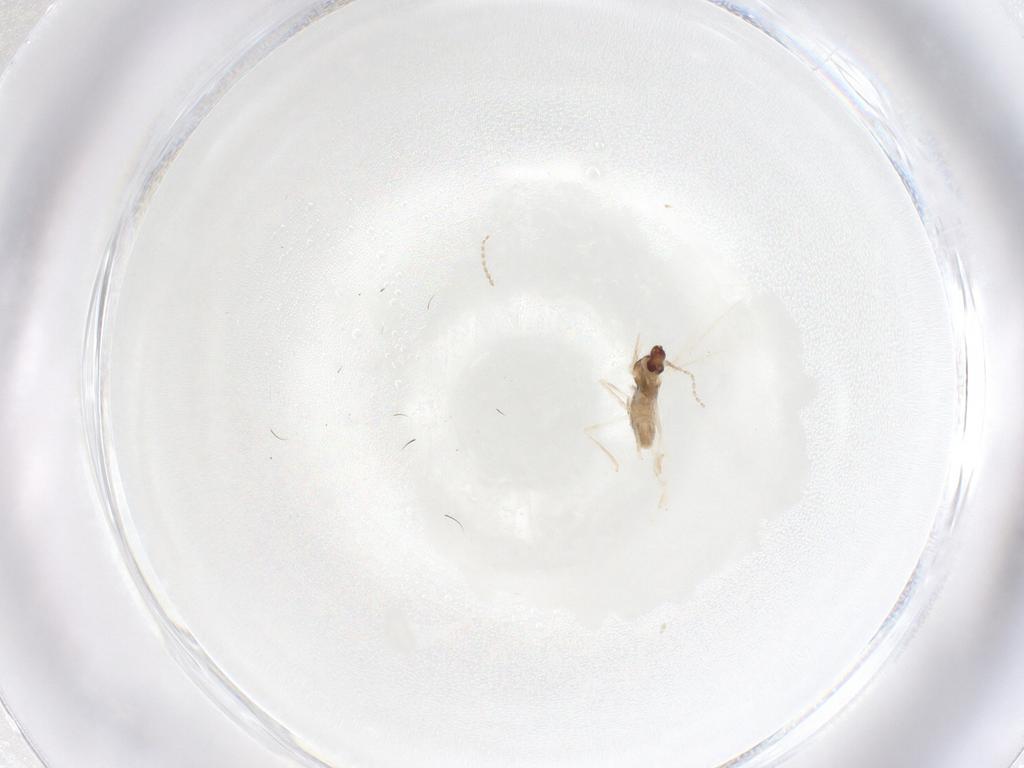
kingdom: Animalia
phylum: Arthropoda
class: Insecta
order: Diptera
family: Cecidomyiidae
